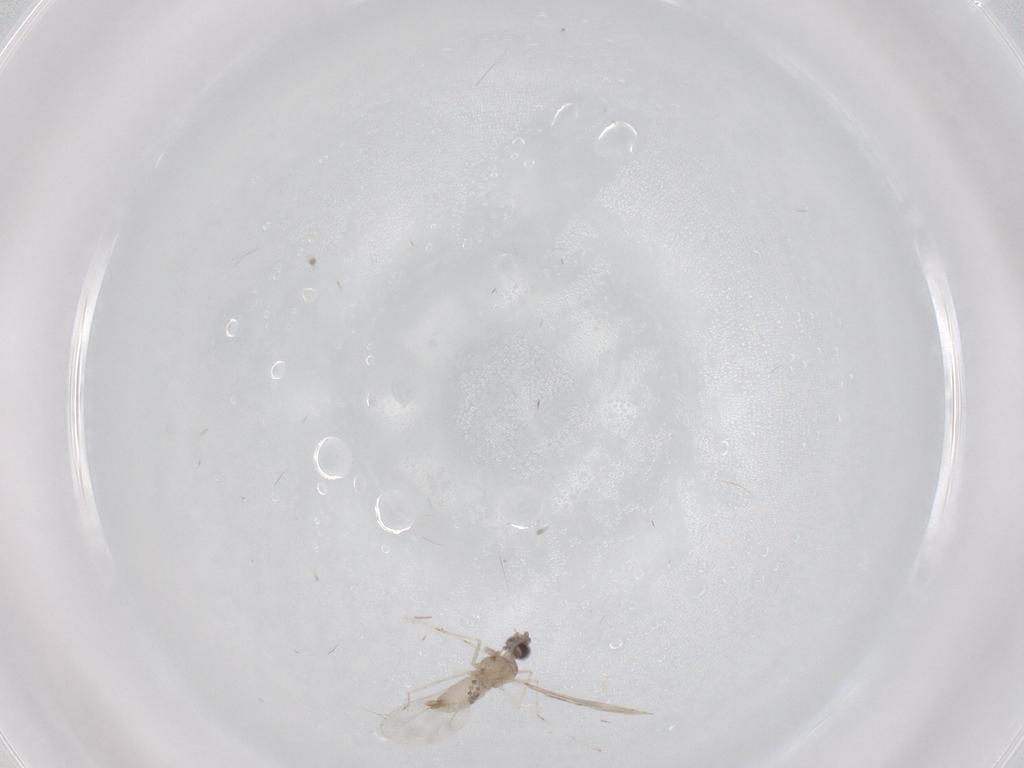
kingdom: Animalia
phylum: Arthropoda
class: Insecta
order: Diptera
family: Cecidomyiidae
